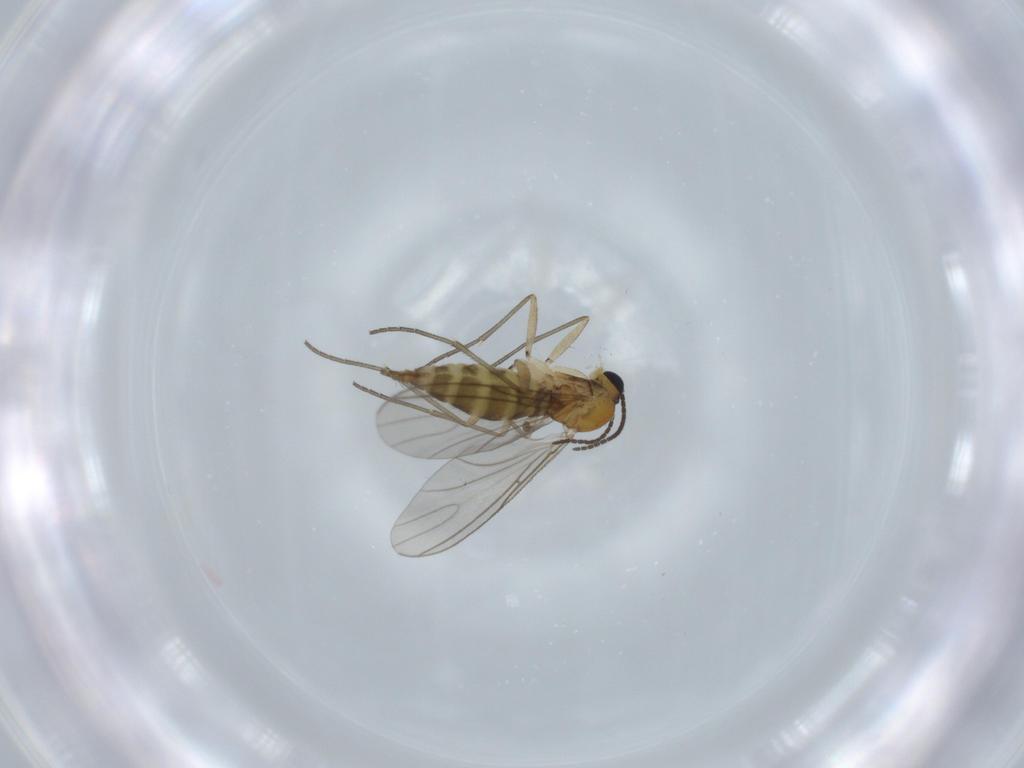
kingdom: Animalia
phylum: Arthropoda
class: Insecta
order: Diptera
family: Sciaridae
